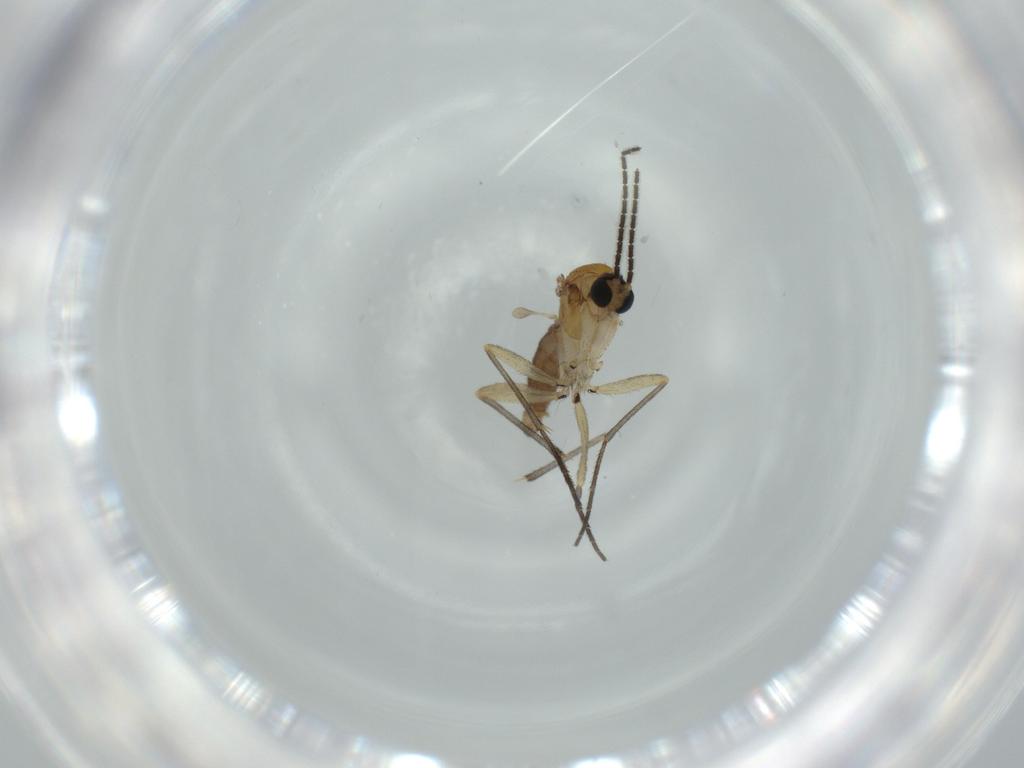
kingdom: Animalia
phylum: Arthropoda
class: Insecta
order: Diptera
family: Sciaridae
